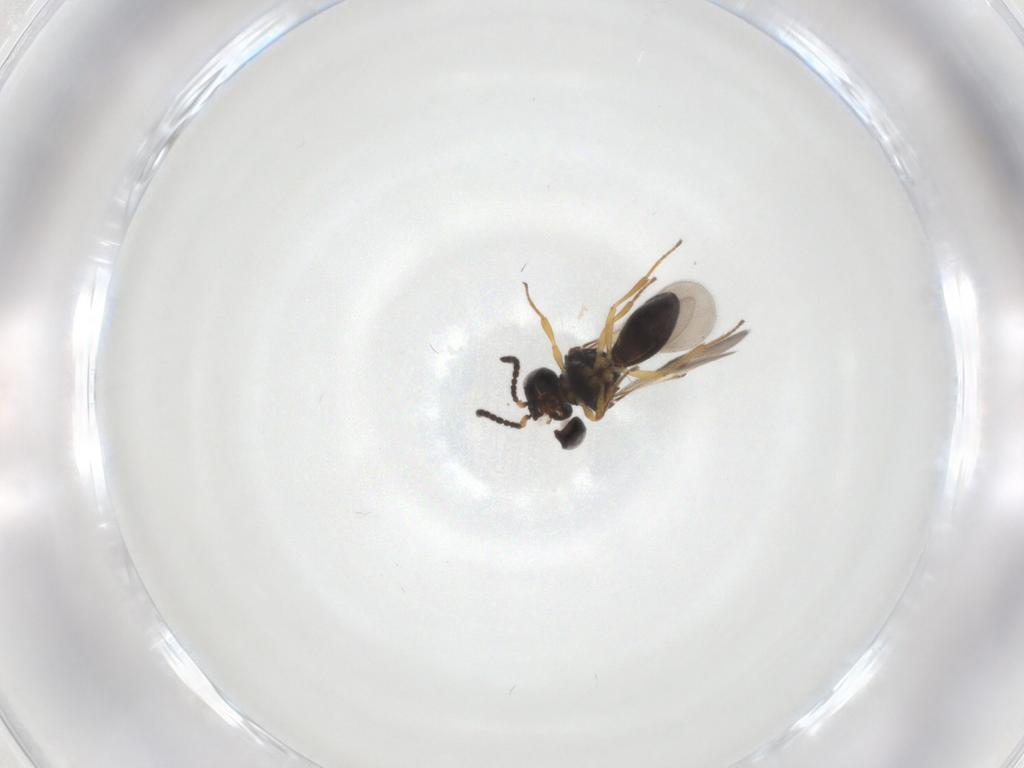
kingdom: Animalia
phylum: Arthropoda
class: Insecta
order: Hymenoptera
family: Scelionidae
